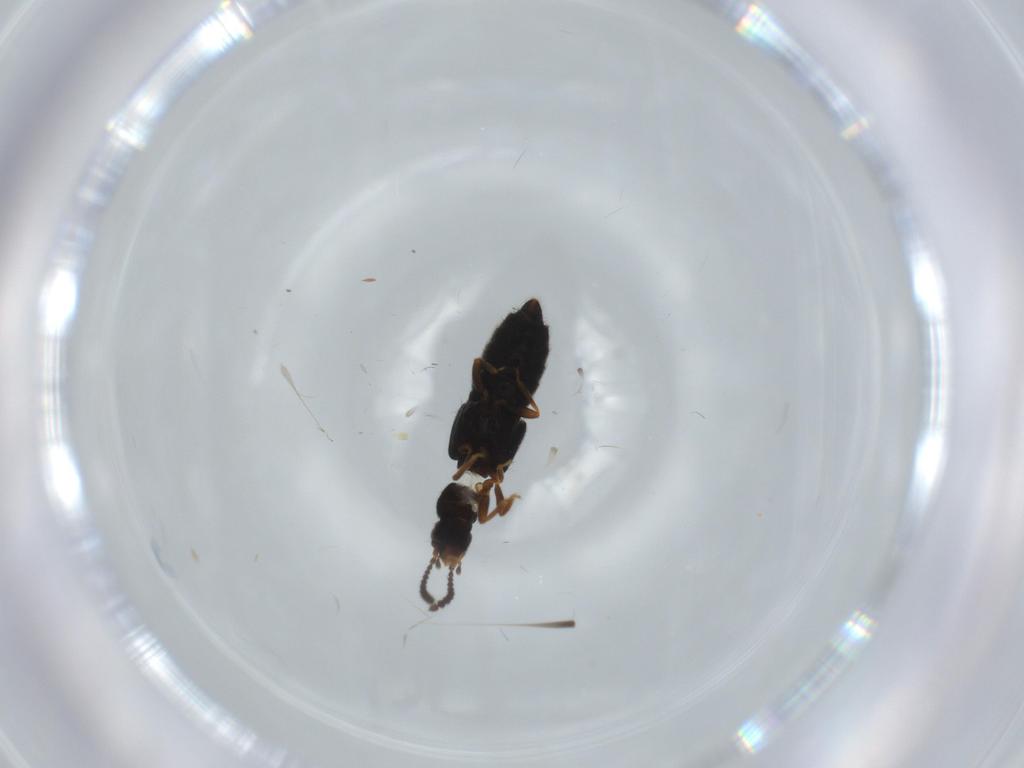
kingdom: Animalia
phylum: Arthropoda
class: Insecta
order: Coleoptera
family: Staphylinidae
